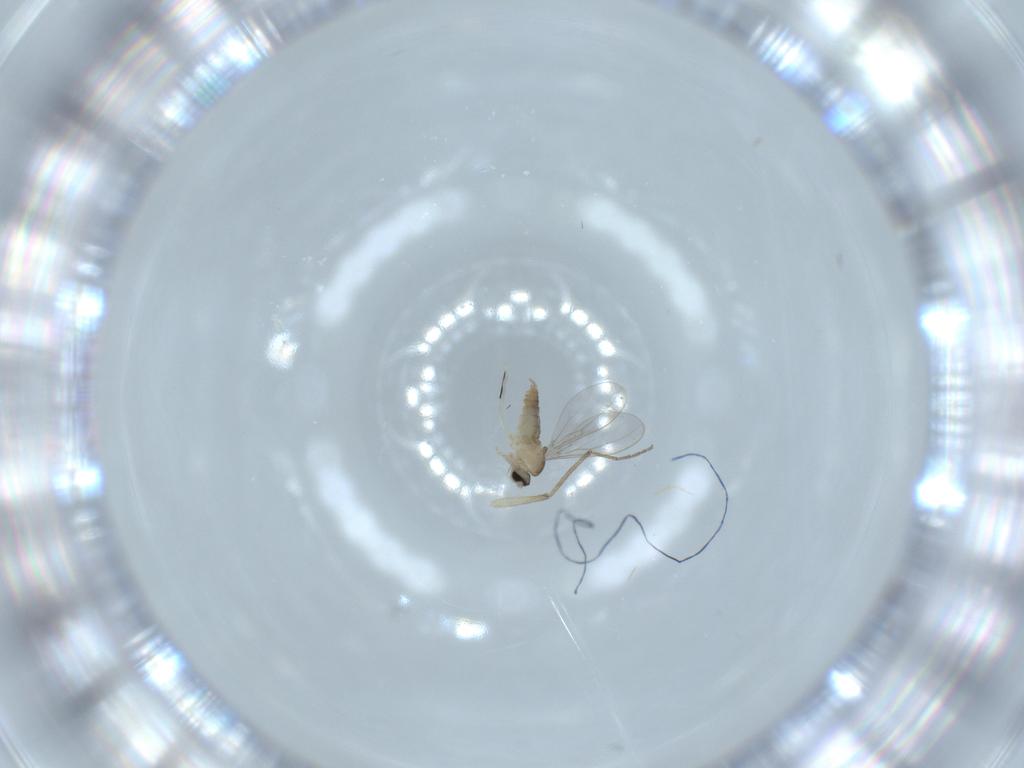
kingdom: Animalia
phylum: Arthropoda
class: Insecta
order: Diptera
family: Cecidomyiidae
